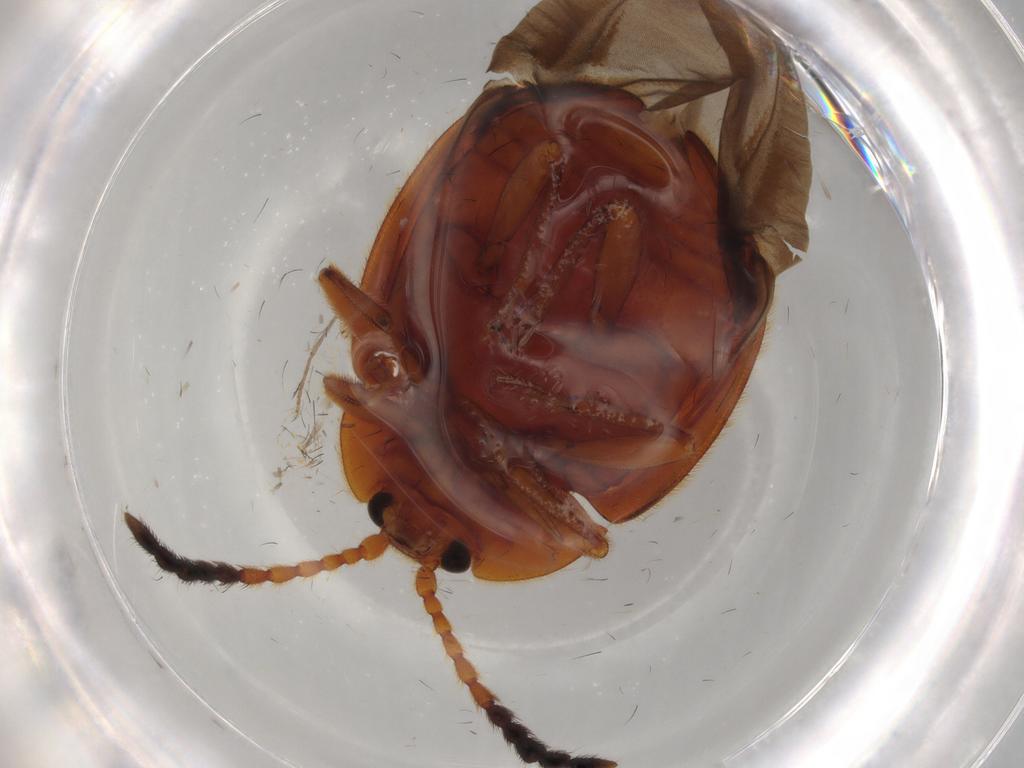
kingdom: Animalia
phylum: Arthropoda
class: Insecta
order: Coleoptera
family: Endomychidae
